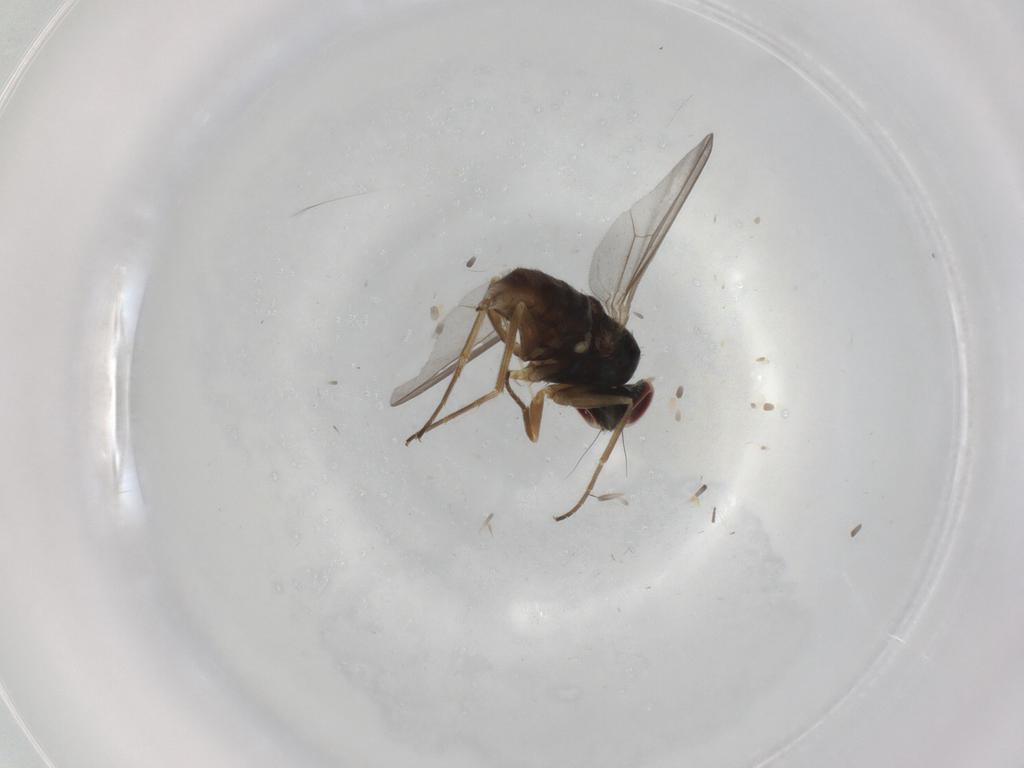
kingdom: Animalia
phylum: Arthropoda
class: Insecta
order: Diptera
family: Dolichopodidae
